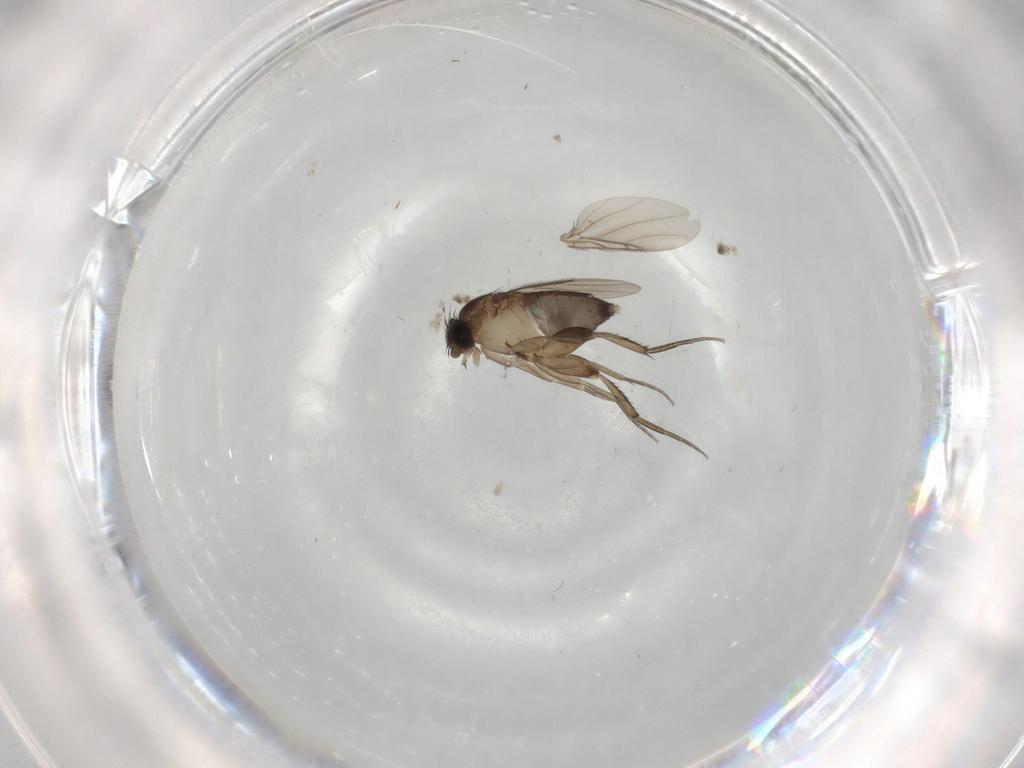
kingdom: Animalia
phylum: Arthropoda
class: Insecta
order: Diptera
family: Phoridae
